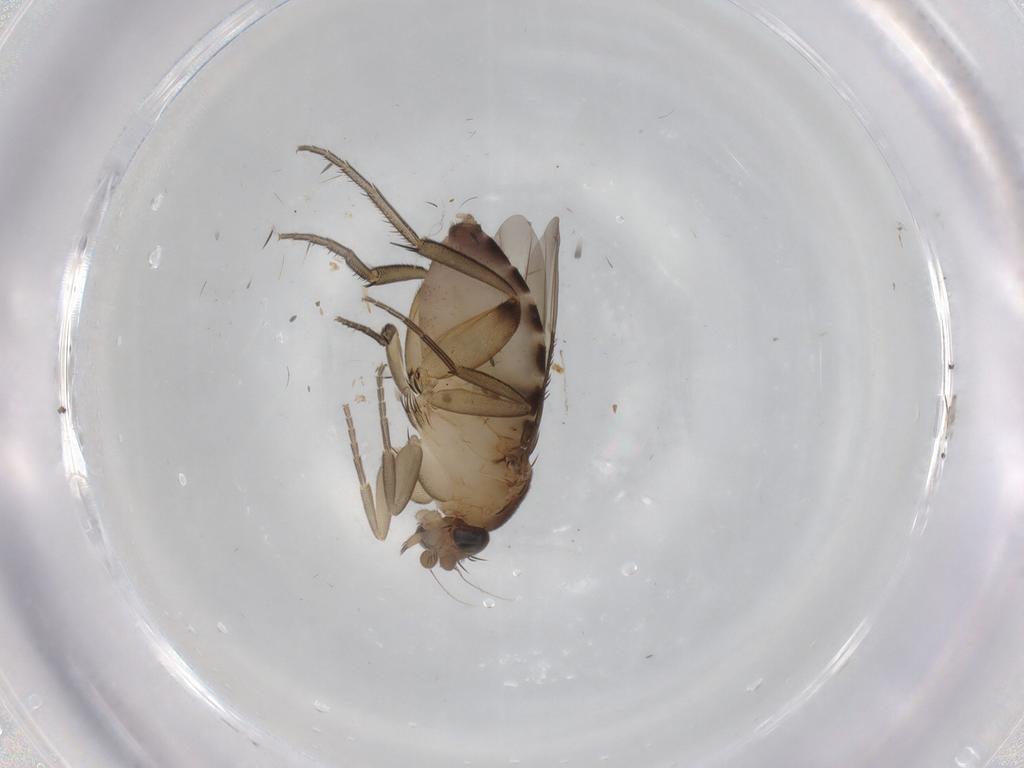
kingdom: Animalia
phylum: Arthropoda
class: Insecta
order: Diptera
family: Phoridae
